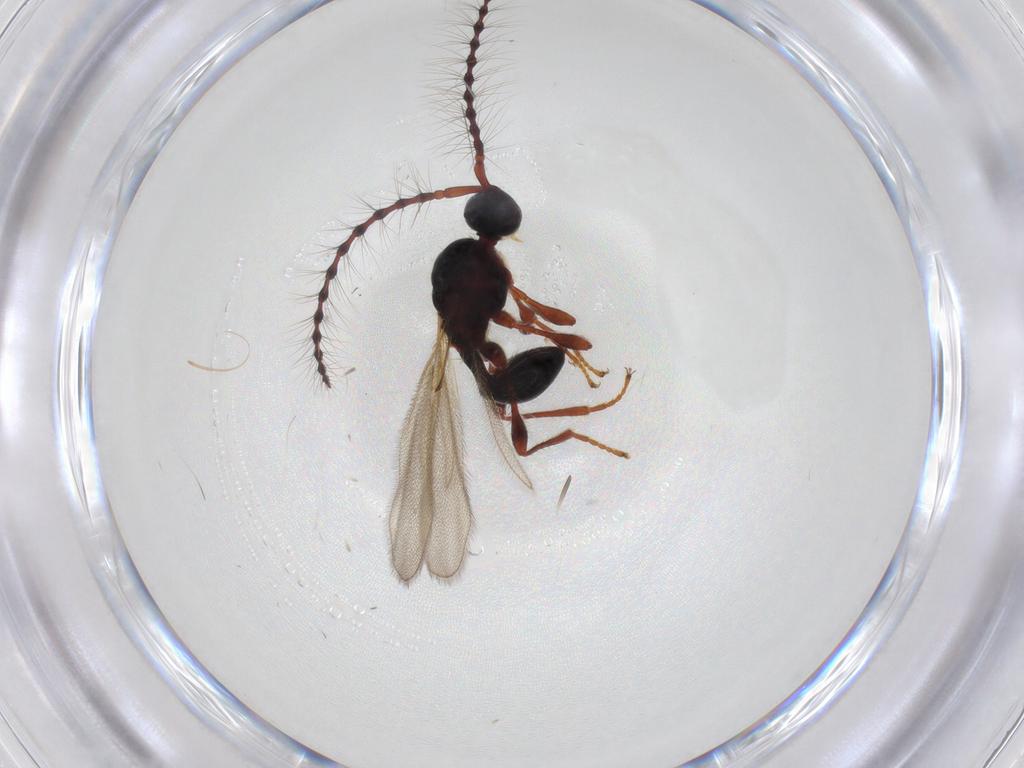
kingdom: Animalia
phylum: Arthropoda
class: Insecta
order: Hymenoptera
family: Diapriidae
